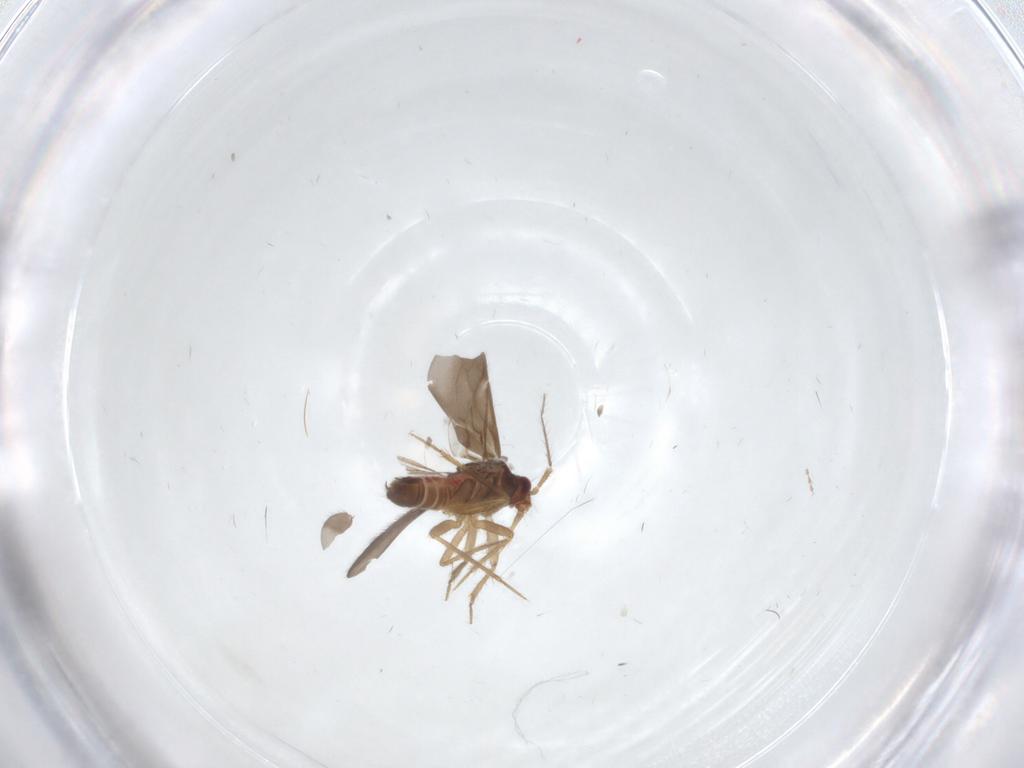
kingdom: Animalia
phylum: Arthropoda
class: Insecta
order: Hemiptera
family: Ceratocombidae
